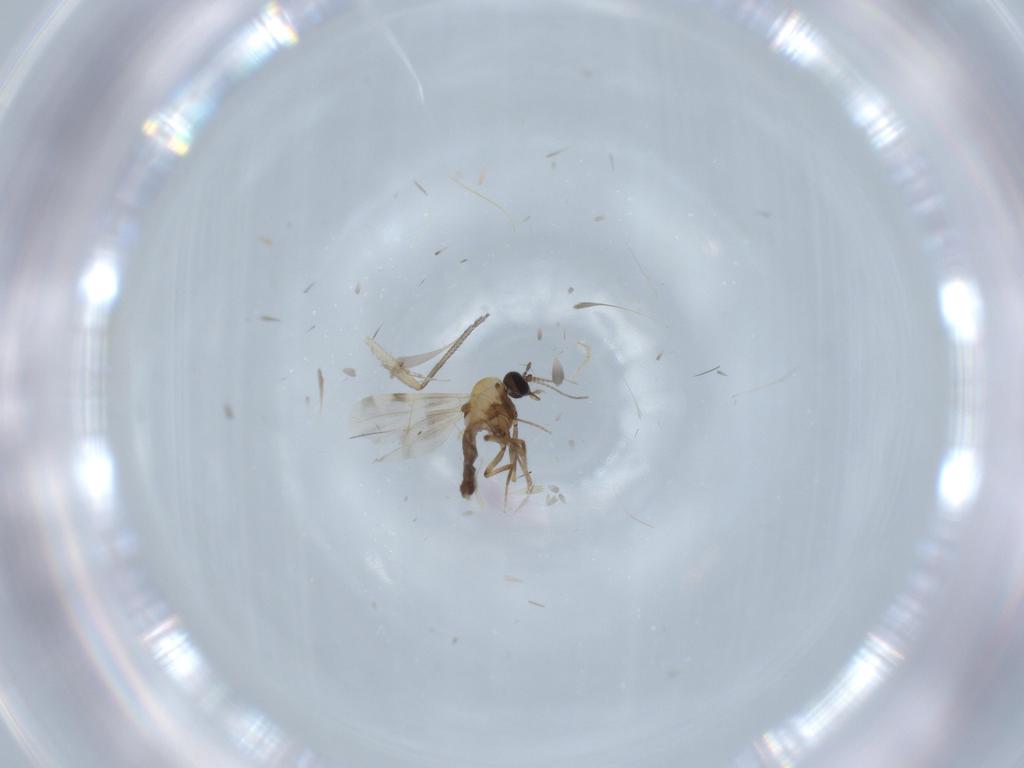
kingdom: Animalia
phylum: Arthropoda
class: Insecta
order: Diptera
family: Cecidomyiidae
